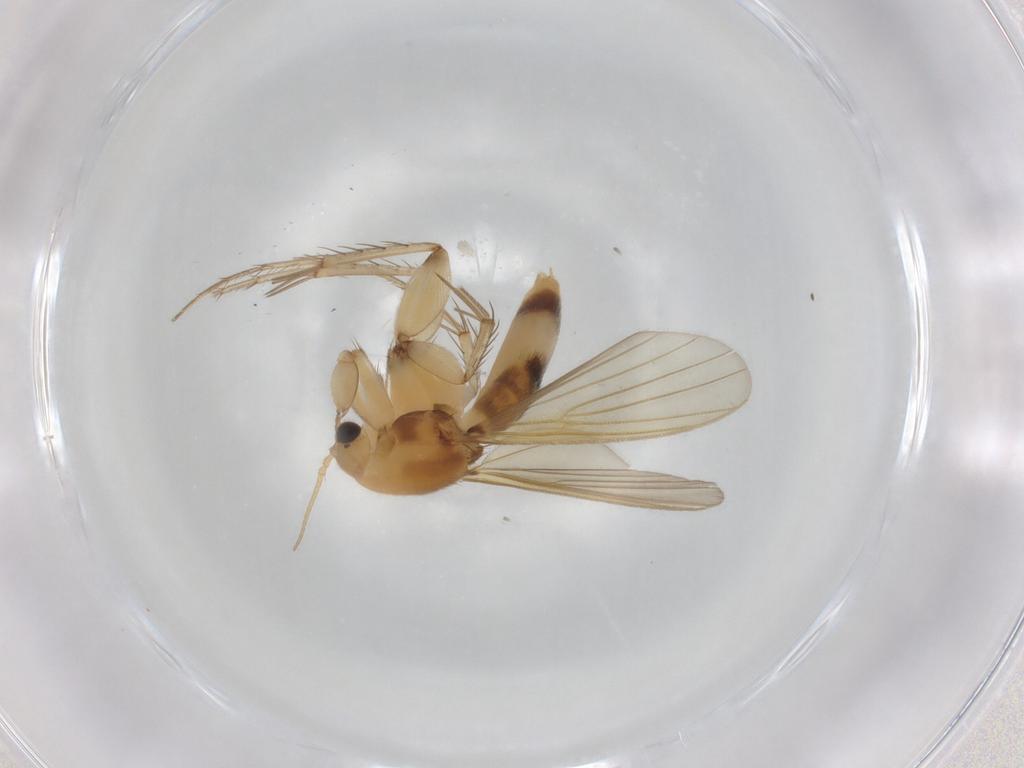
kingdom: Animalia
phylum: Arthropoda
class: Insecta
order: Diptera
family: Mycetophilidae
